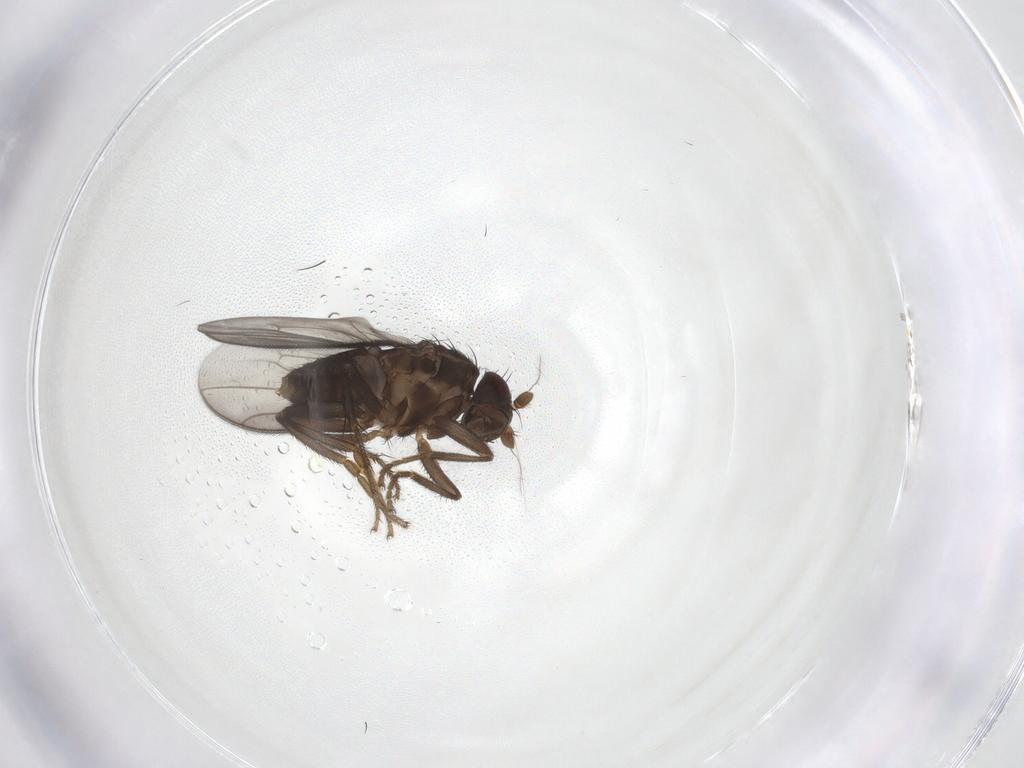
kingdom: Animalia
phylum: Arthropoda
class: Insecta
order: Diptera
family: Sphaeroceridae
